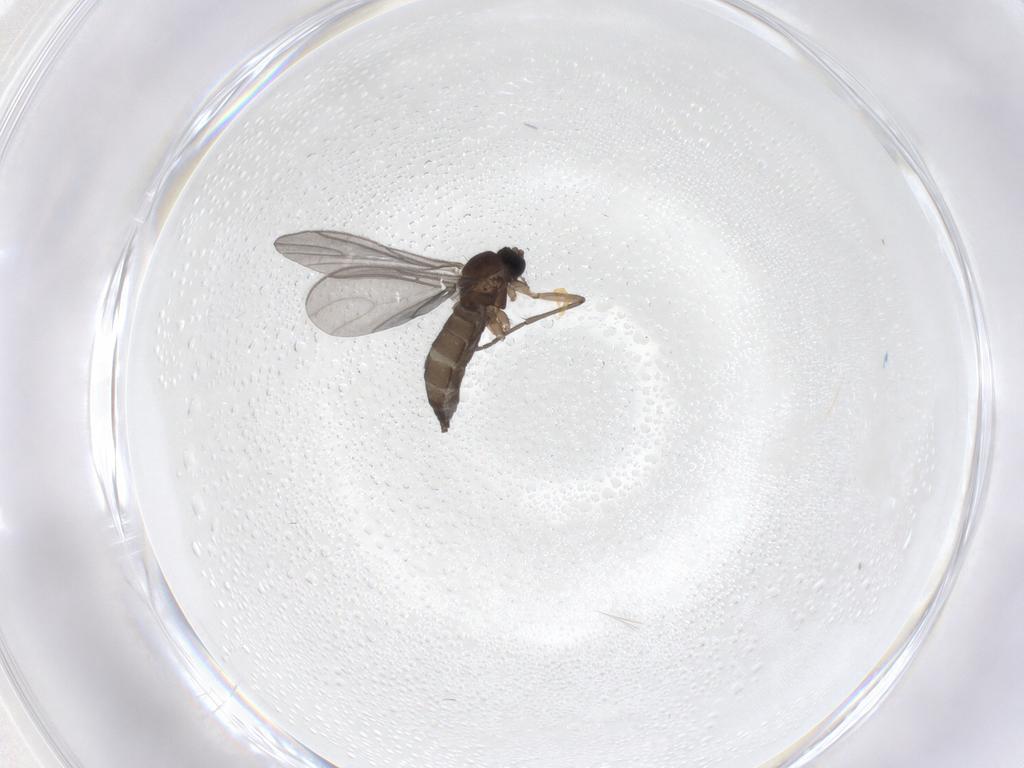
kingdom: Animalia
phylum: Arthropoda
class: Insecta
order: Diptera
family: Sciaridae
